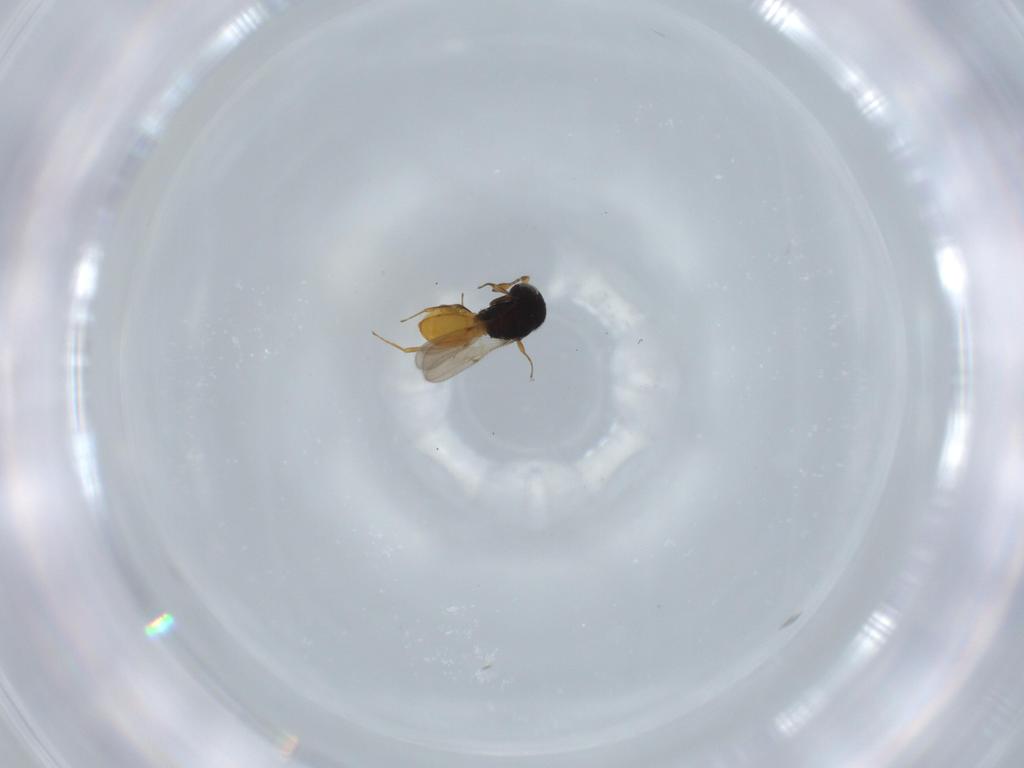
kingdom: Animalia
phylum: Arthropoda
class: Insecta
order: Hymenoptera
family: Scelionidae
